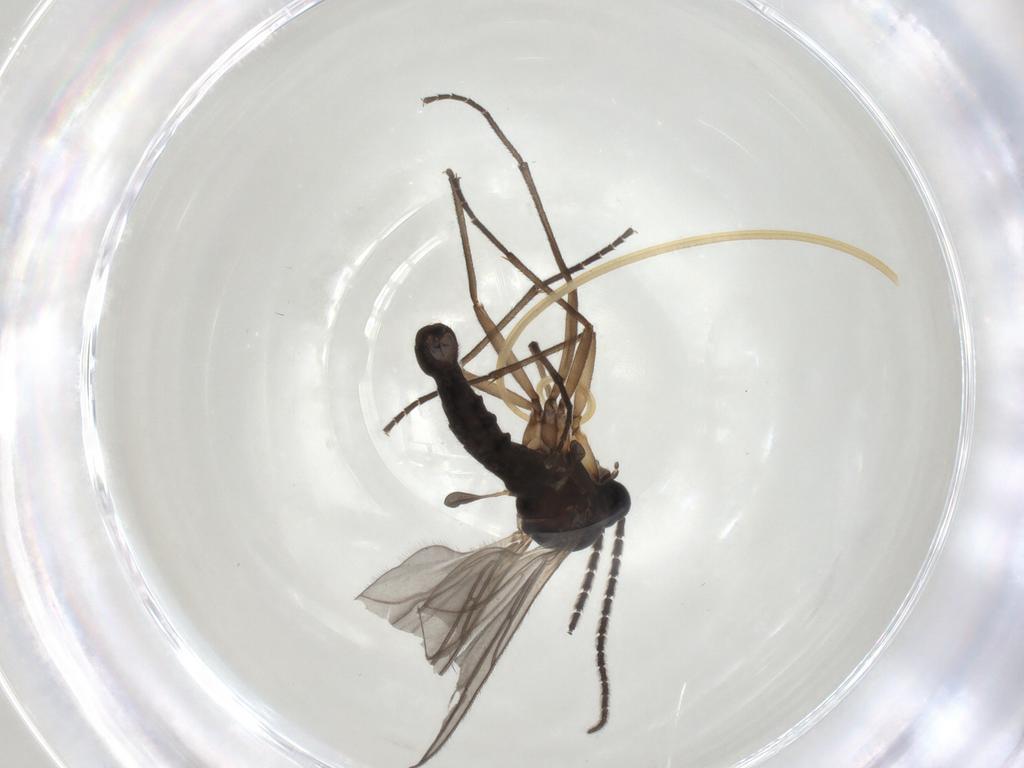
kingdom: Animalia
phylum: Arthropoda
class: Insecta
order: Diptera
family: Sciaridae
